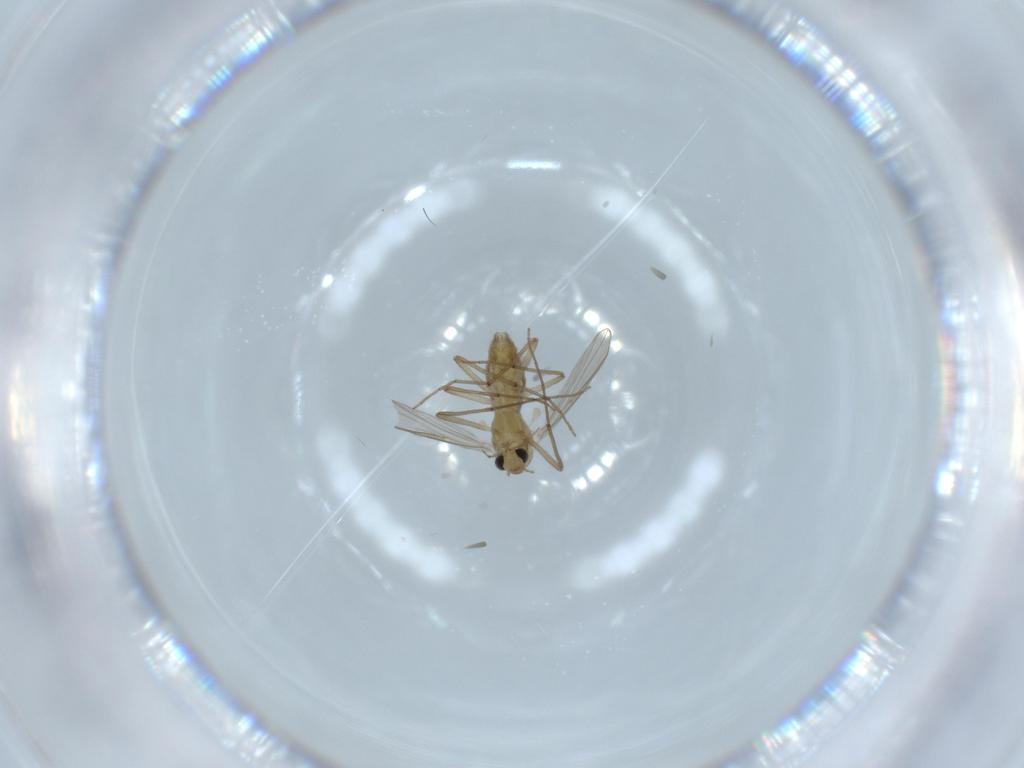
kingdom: Animalia
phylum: Arthropoda
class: Insecta
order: Diptera
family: Chironomidae
